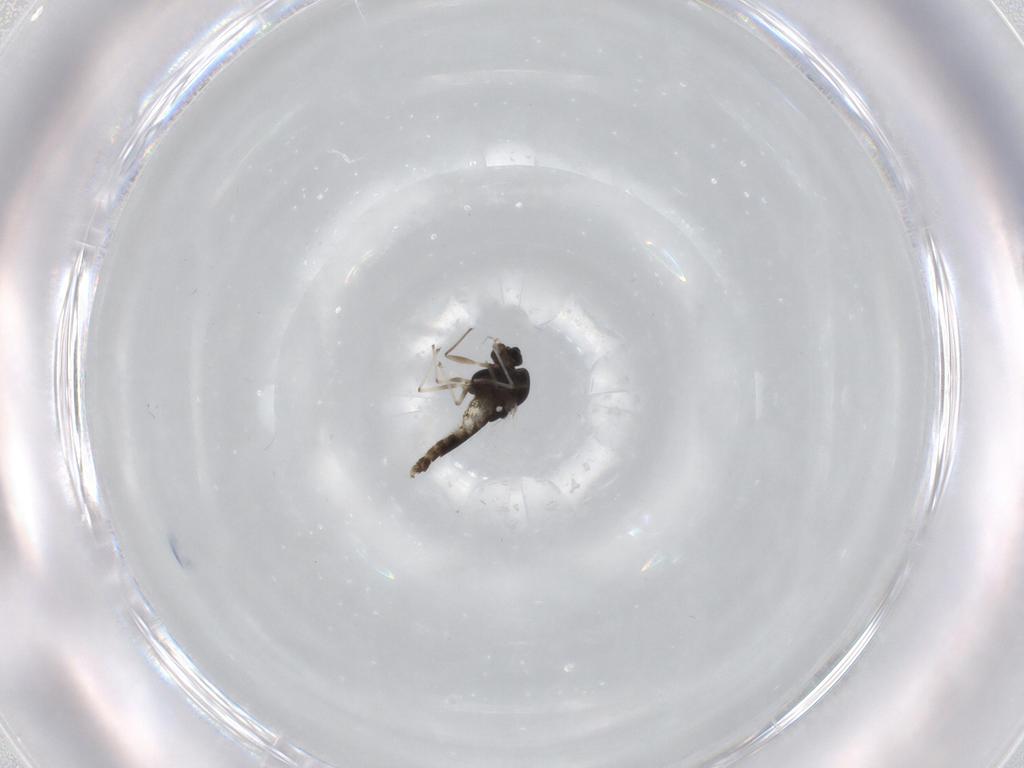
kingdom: Animalia
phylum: Arthropoda
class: Insecta
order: Diptera
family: Chironomidae
